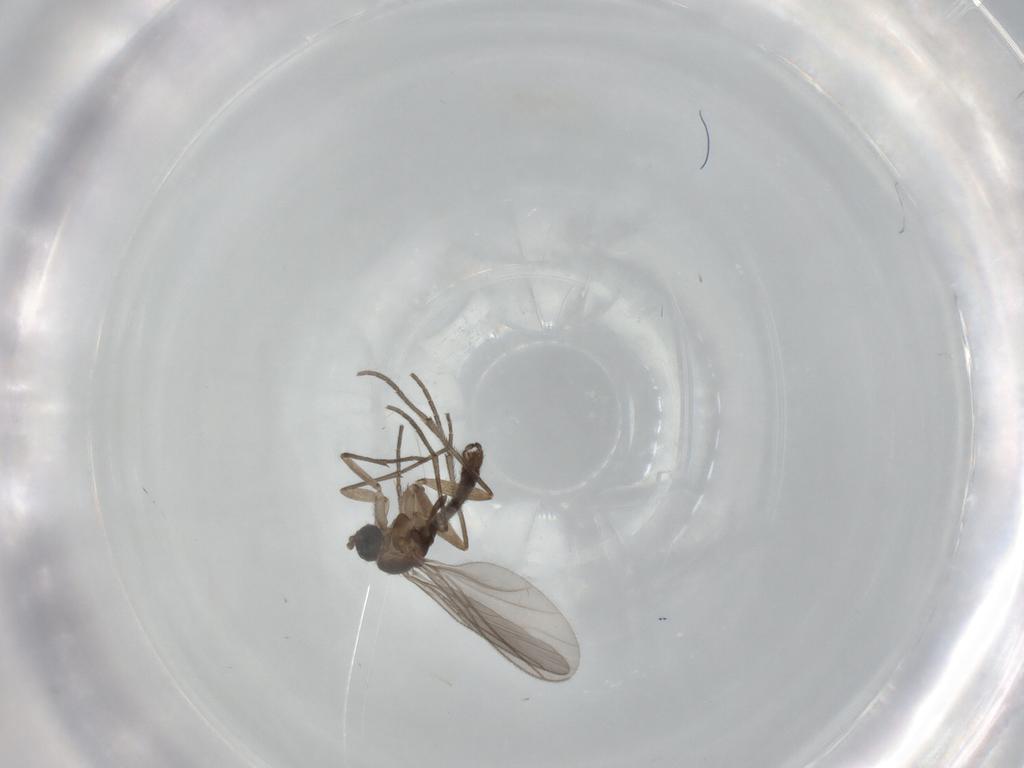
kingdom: Animalia
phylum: Arthropoda
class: Insecta
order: Diptera
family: Sciaridae
